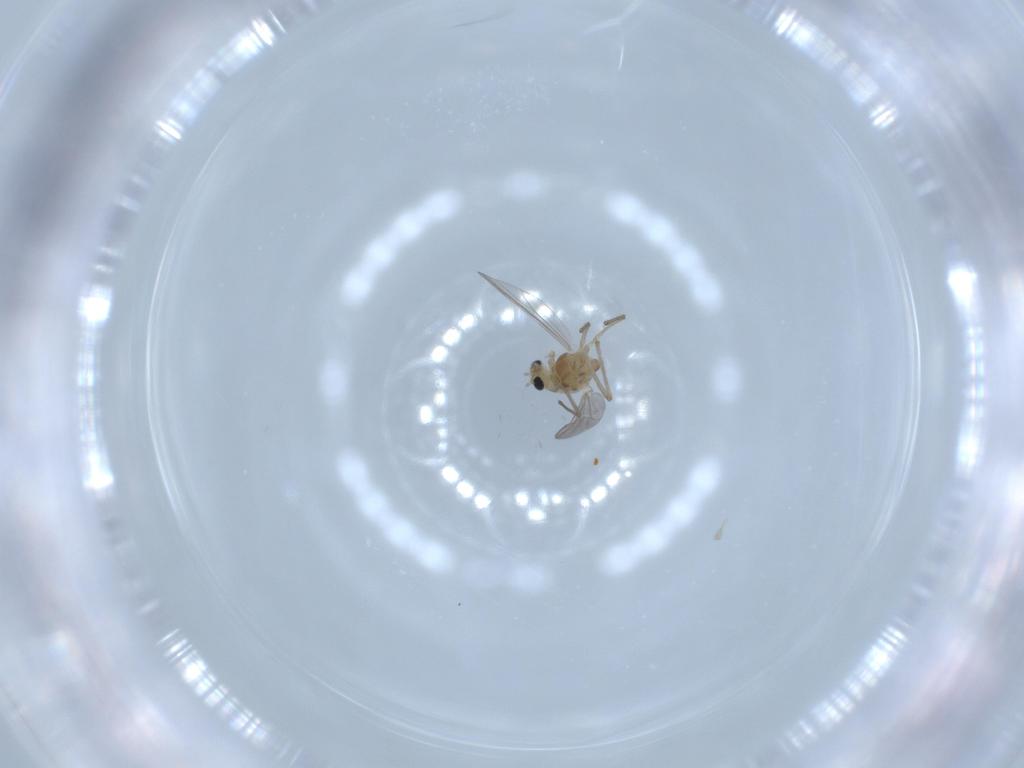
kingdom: Animalia
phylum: Arthropoda
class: Insecta
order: Diptera
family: Chironomidae
